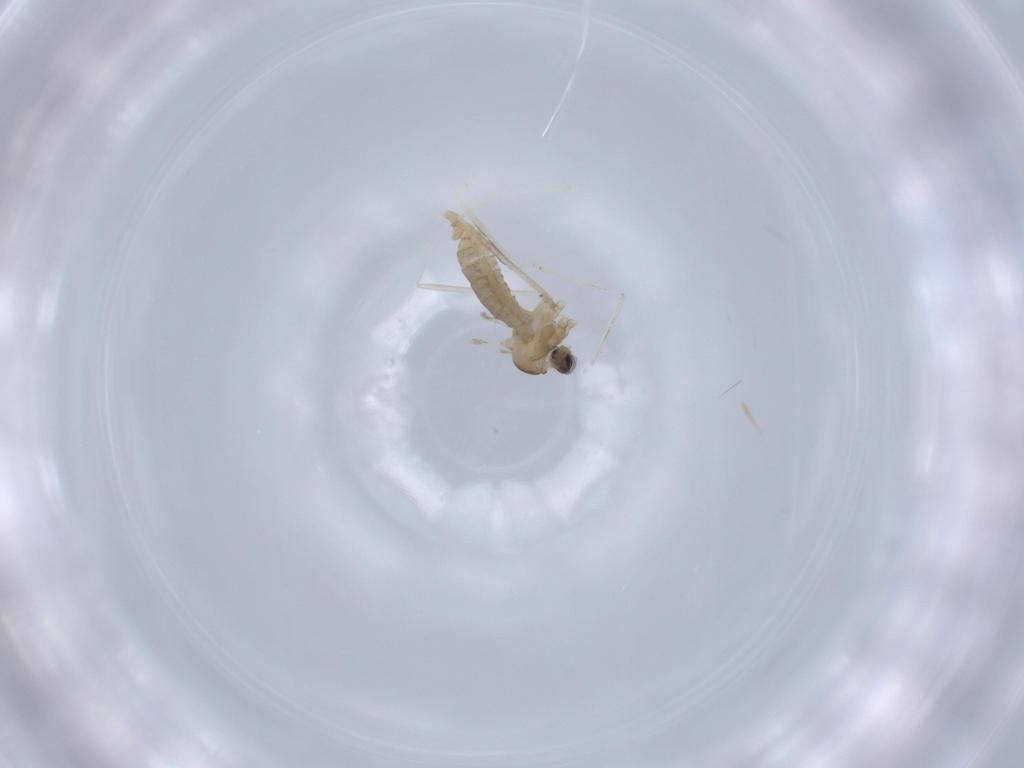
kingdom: Animalia
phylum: Arthropoda
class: Insecta
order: Diptera
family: Cecidomyiidae
